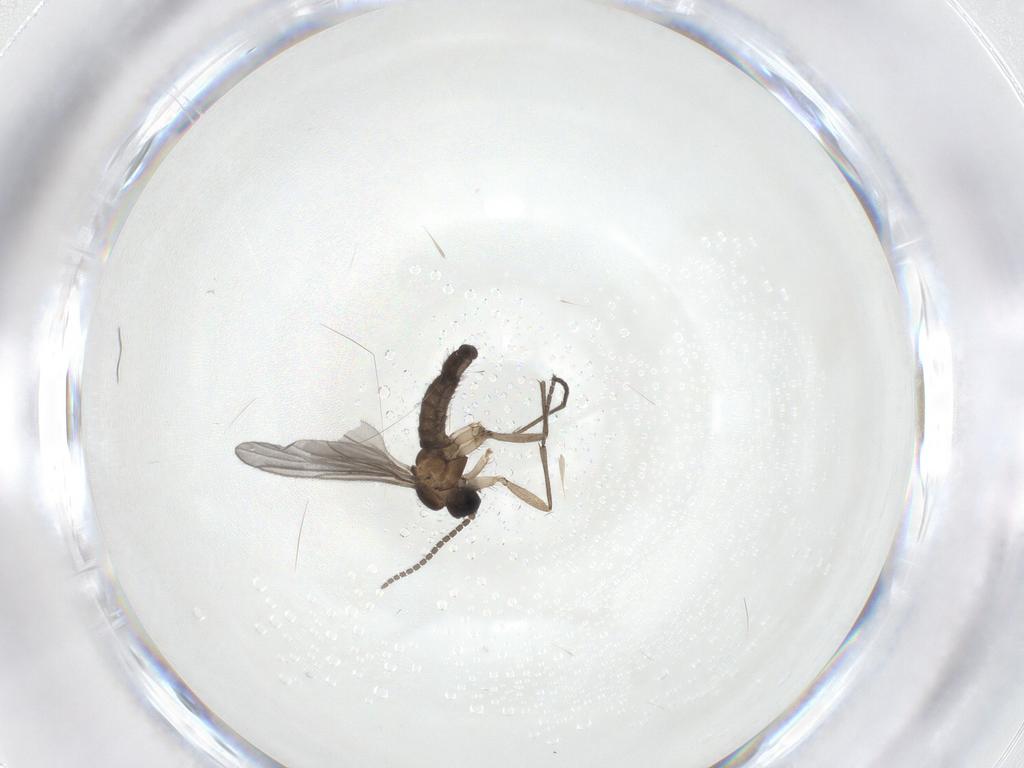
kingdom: Animalia
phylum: Arthropoda
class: Insecta
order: Diptera
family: Sciaridae
